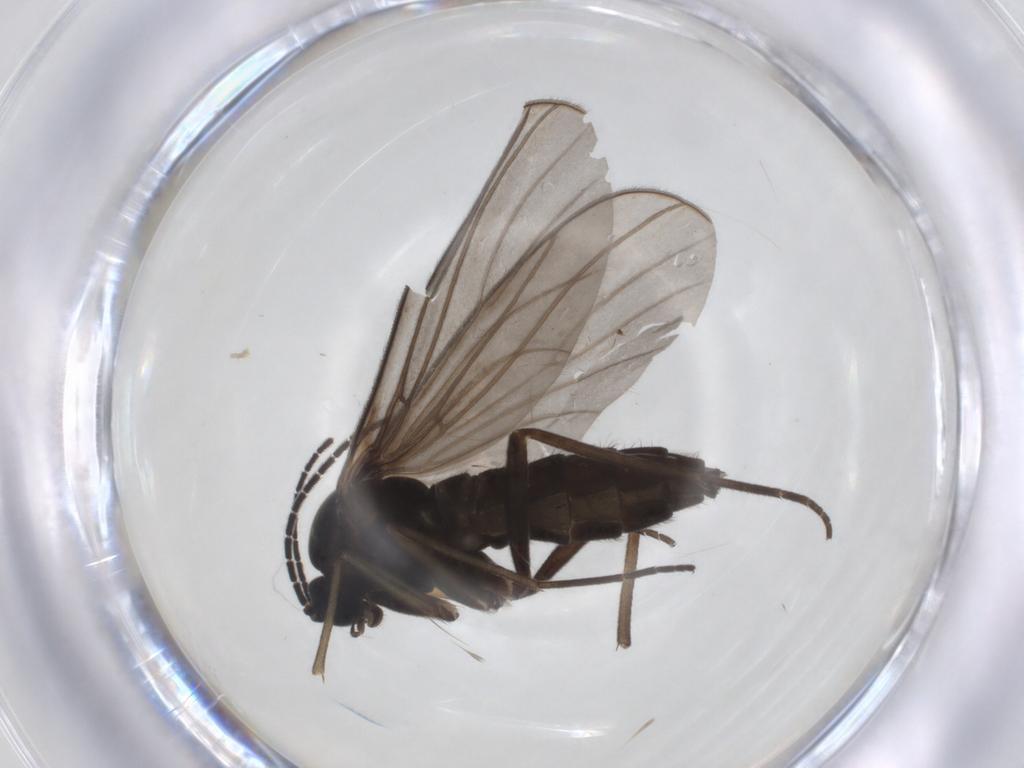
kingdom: Animalia
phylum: Arthropoda
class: Insecta
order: Diptera
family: Sciaridae
